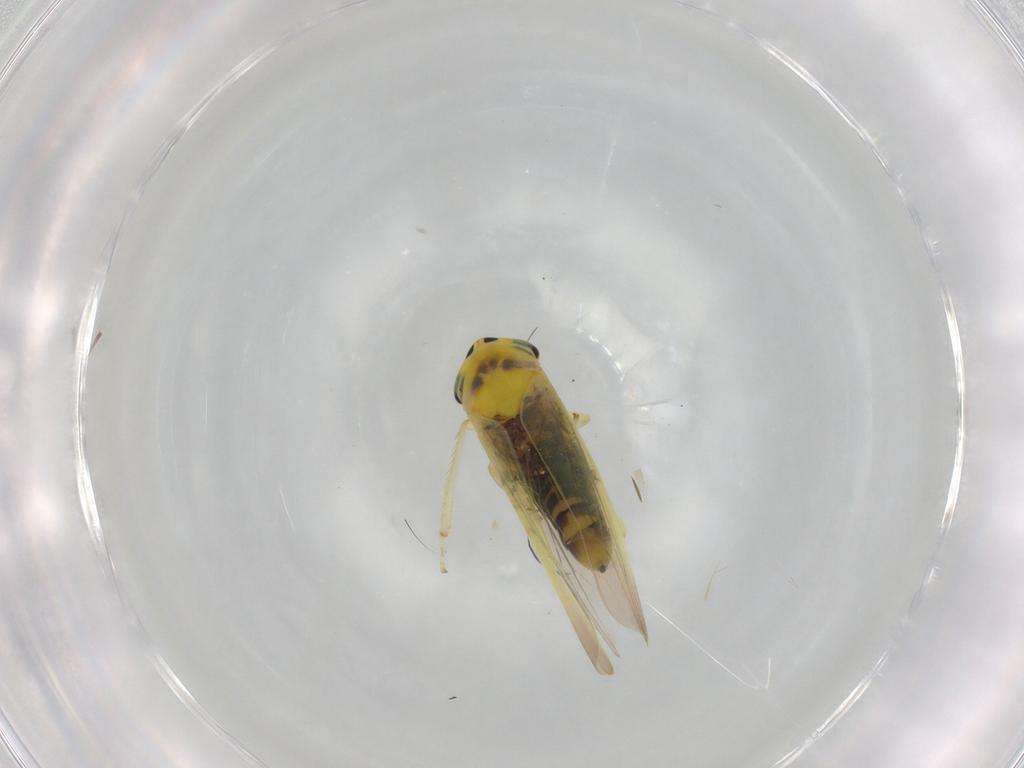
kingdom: Animalia
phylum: Arthropoda
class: Insecta
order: Hemiptera
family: Cicadellidae
